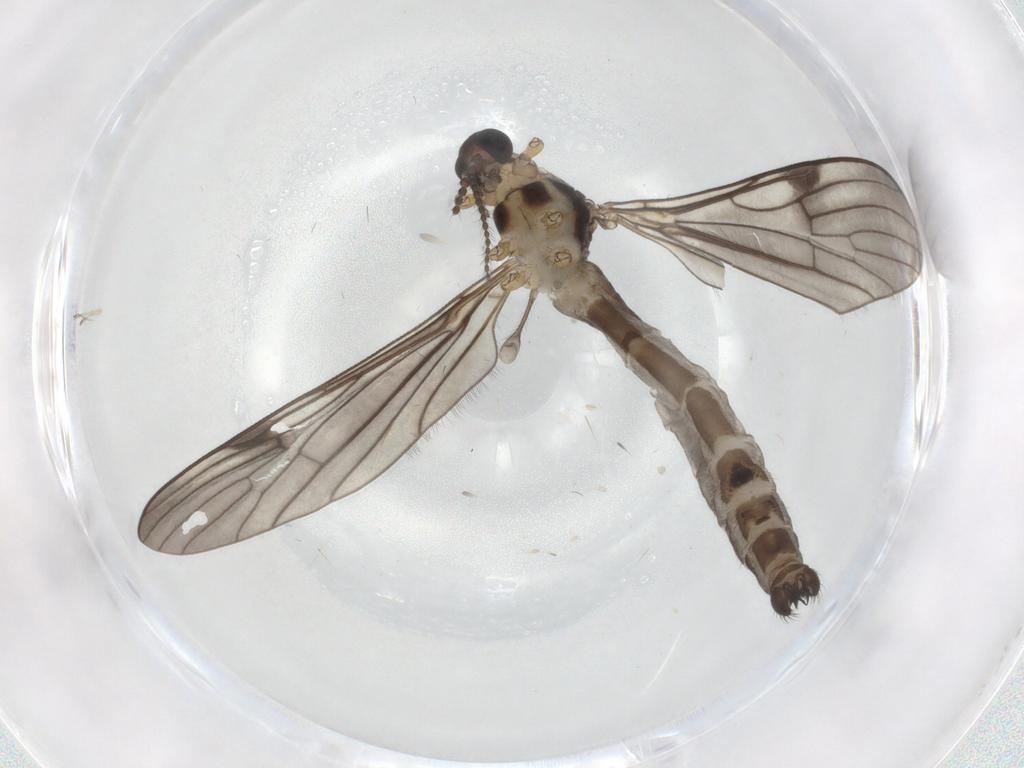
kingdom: Animalia
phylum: Arthropoda
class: Insecta
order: Diptera
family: Limoniidae
